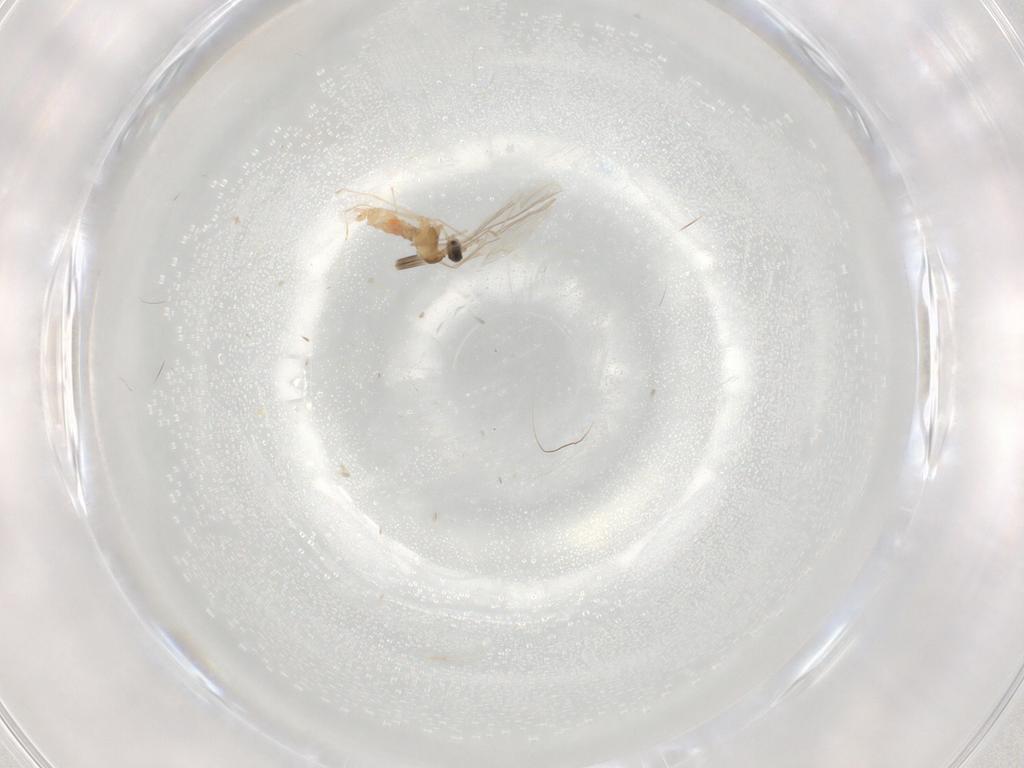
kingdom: Animalia
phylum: Arthropoda
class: Insecta
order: Diptera
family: Cecidomyiidae
